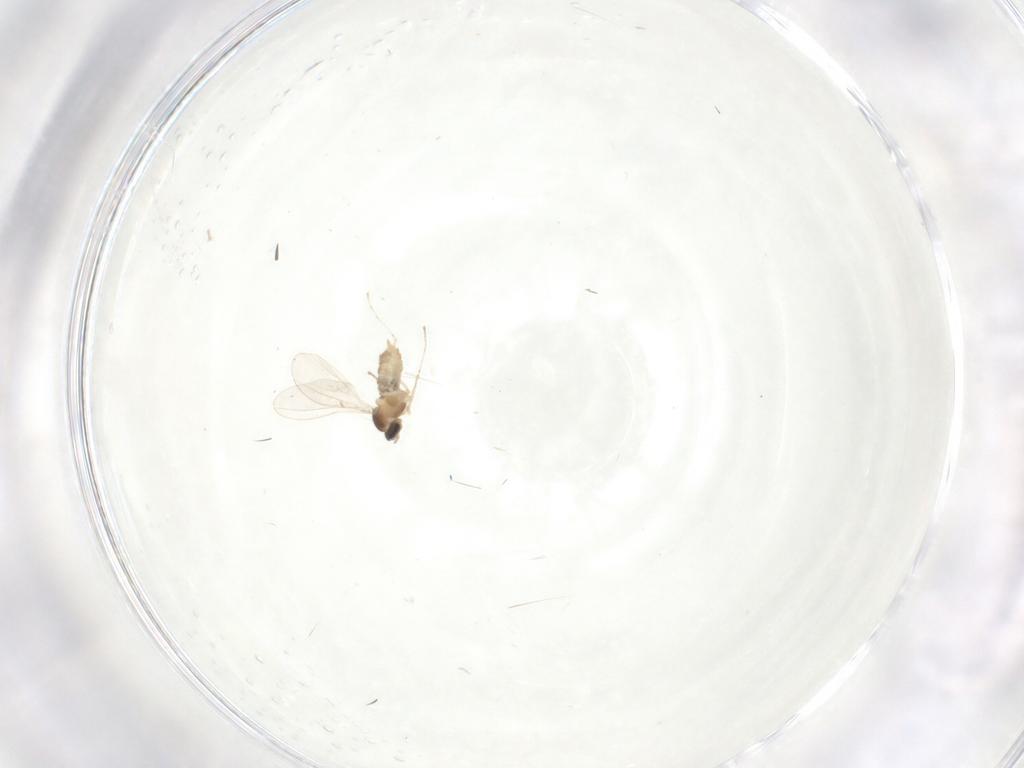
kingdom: Animalia
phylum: Arthropoda
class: Insecta
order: Diptera
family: Cecidomyiidae
